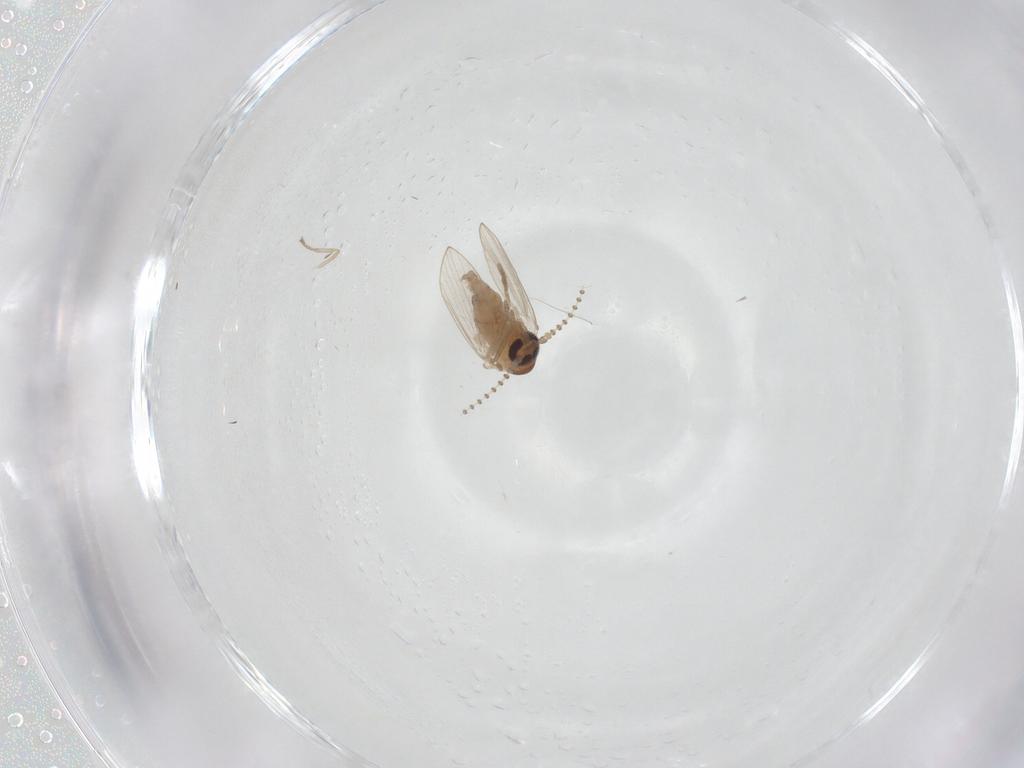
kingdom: Animalia
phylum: Arthropoda
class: Insecta
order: Diptera
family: Psychodidae
